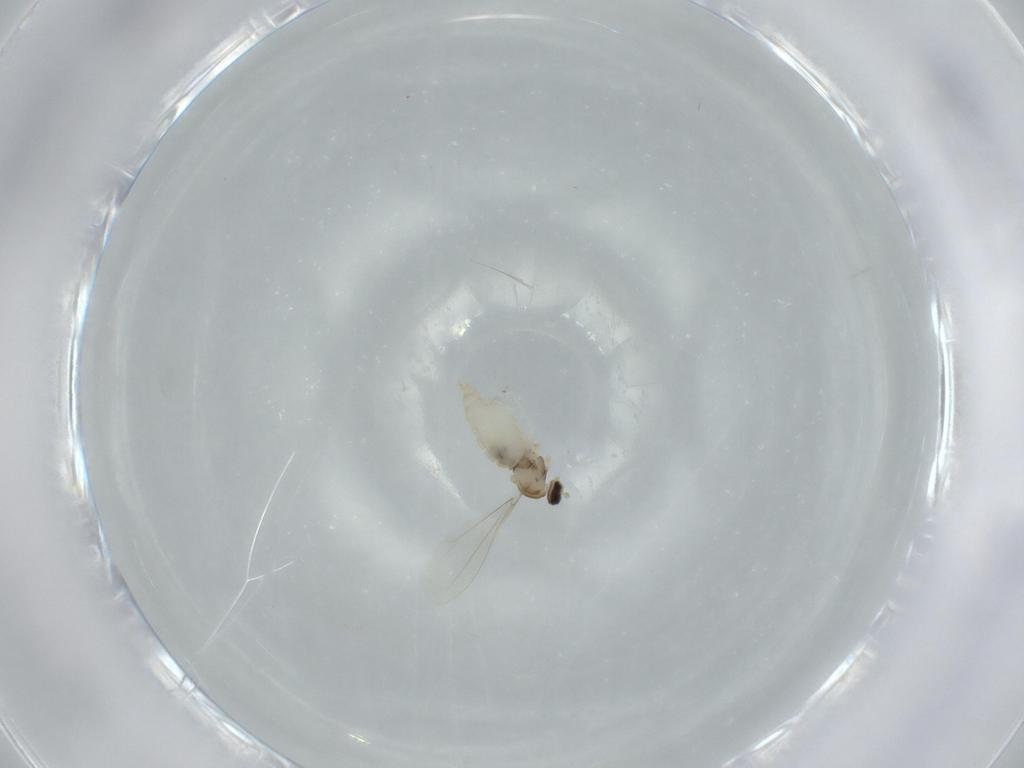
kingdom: Animalia
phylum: Arthropoda
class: Insecta
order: Diptera
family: Cecidomyiidae
